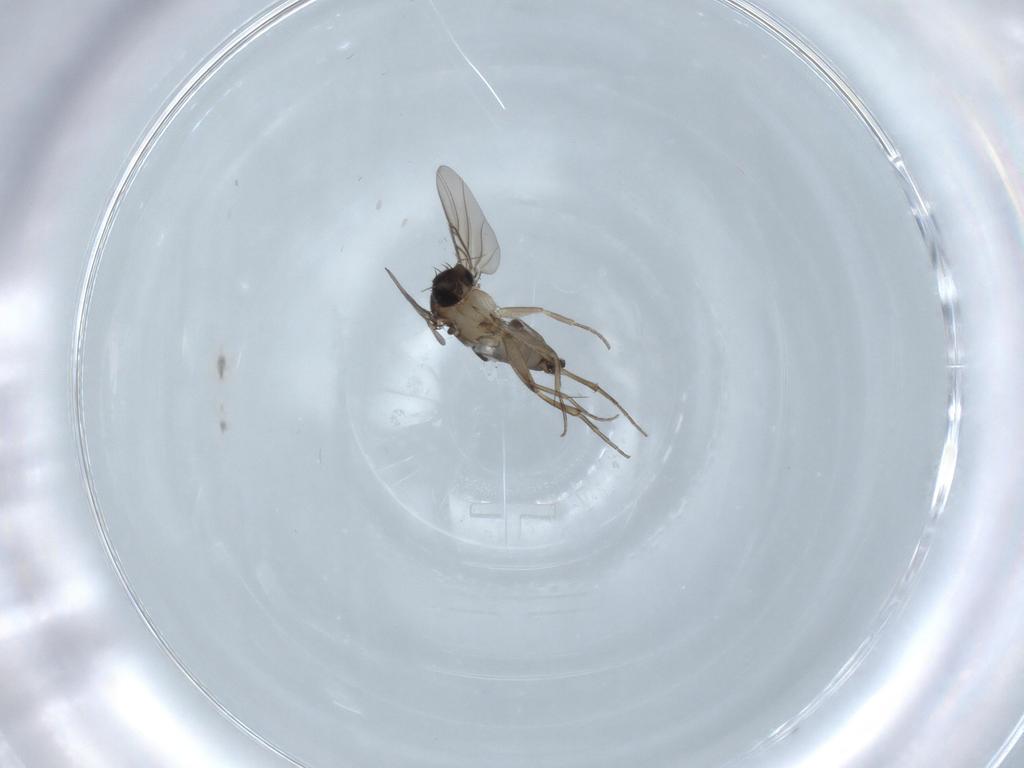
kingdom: Animalia
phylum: Arthropoda
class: Insecta
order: Diptera
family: Phoridae
